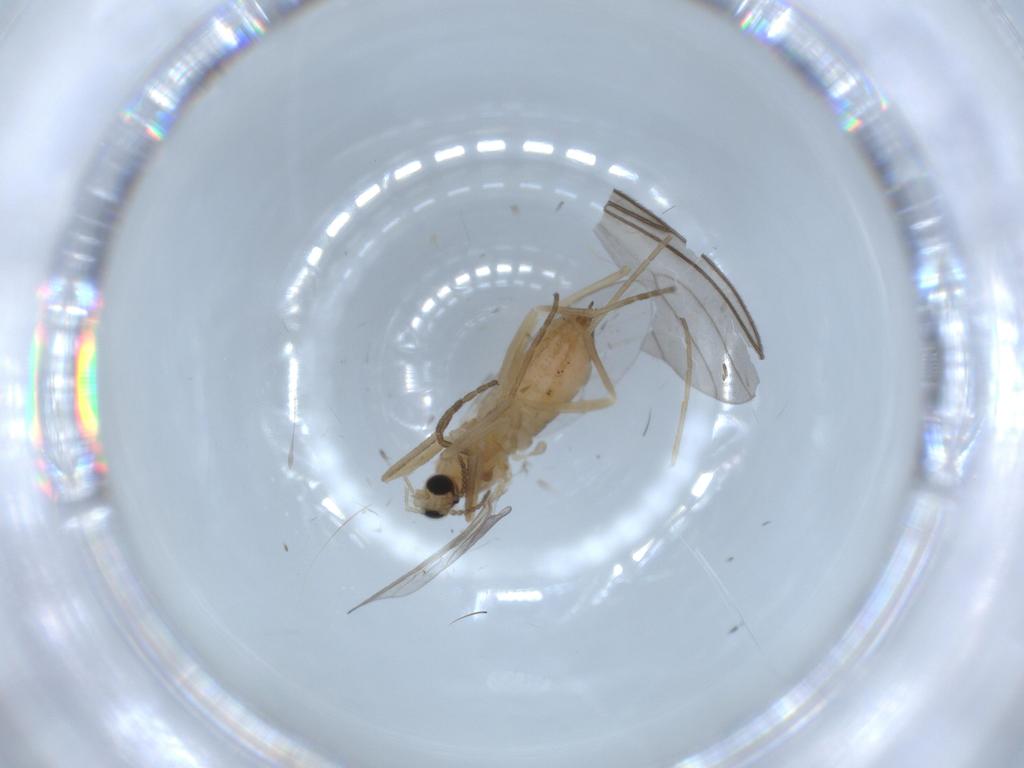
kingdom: Animalia
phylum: Arthropoda
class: Insecta
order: Diptera
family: Cecidomyiidae
